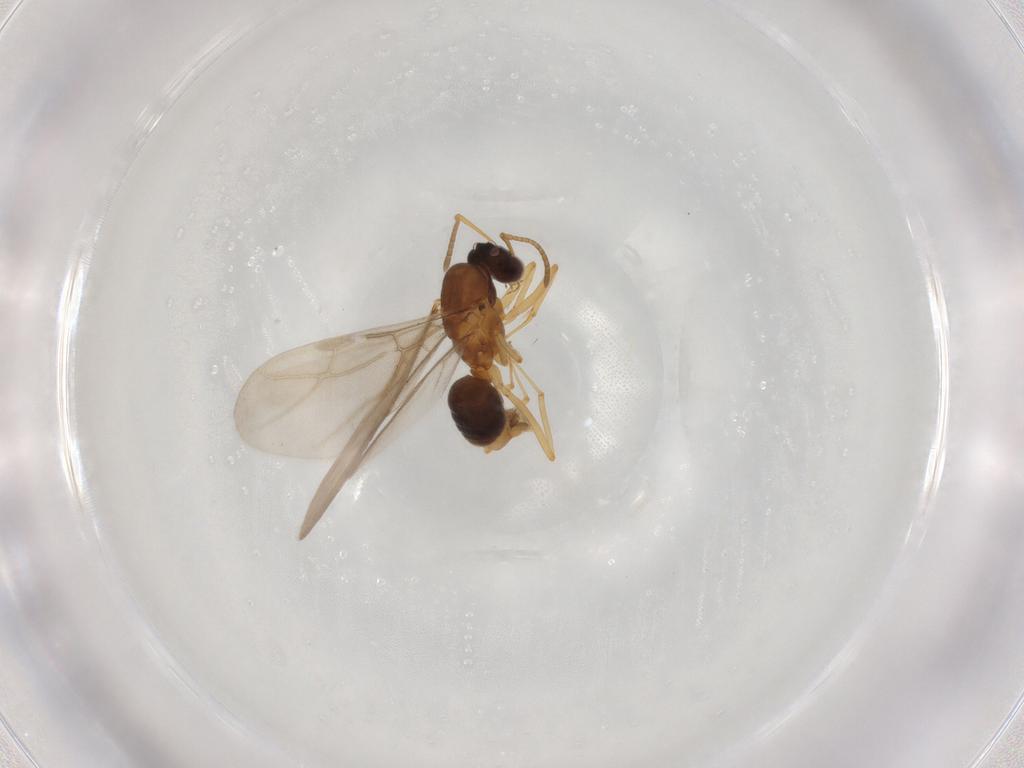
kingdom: Animalia
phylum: Arthropoda
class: Insecta
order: Hymenoptera
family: Formicidae
